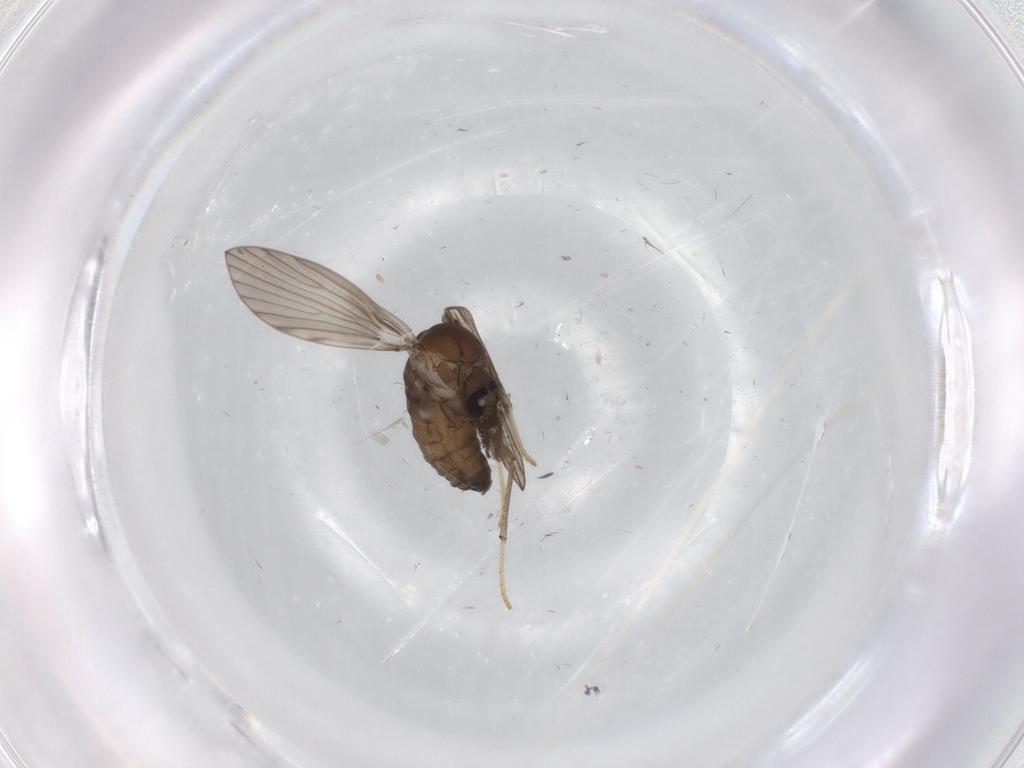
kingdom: Animalia
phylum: Arthropoda
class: Insecta
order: Diptera
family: Psychodidae
